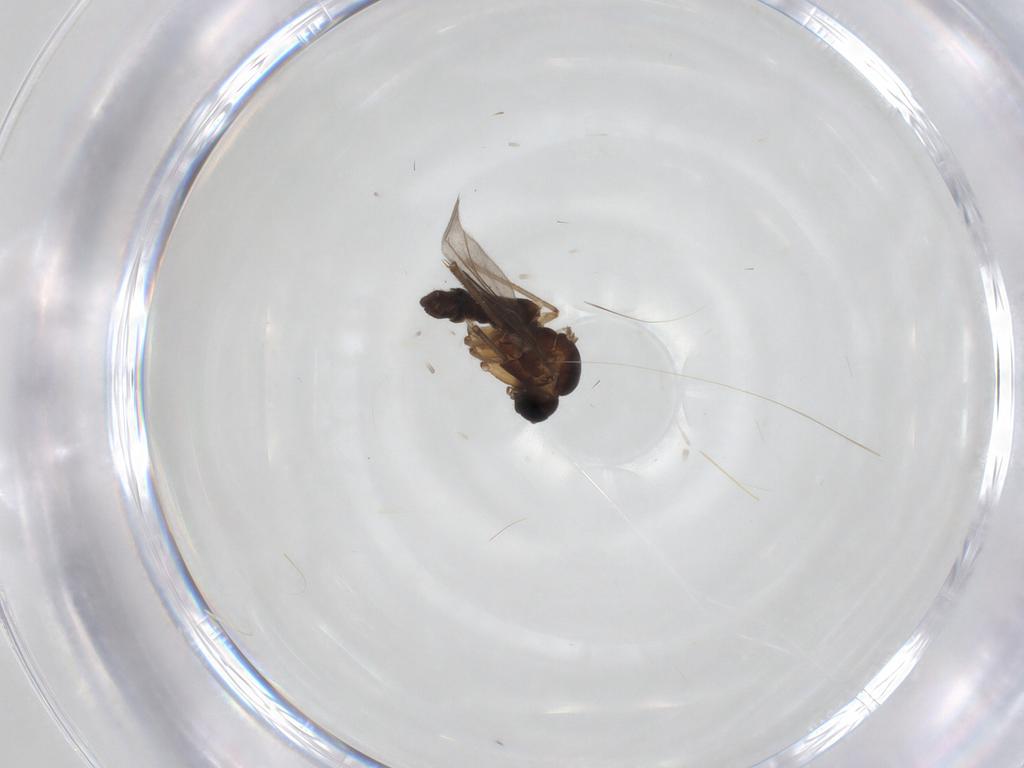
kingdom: Animalia
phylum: Arthropoda
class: Insecta
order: Diptera
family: Sciaridae
